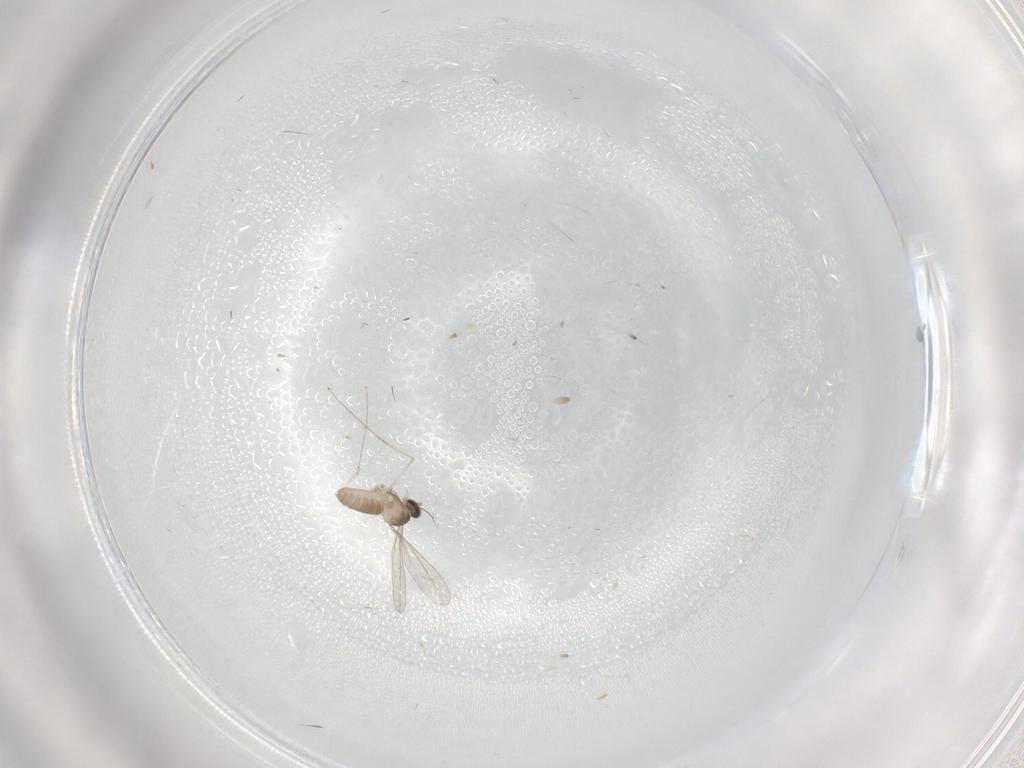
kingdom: Animalia
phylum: Arthropoda
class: Insecta
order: Diptera
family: Cecidomyiidae
